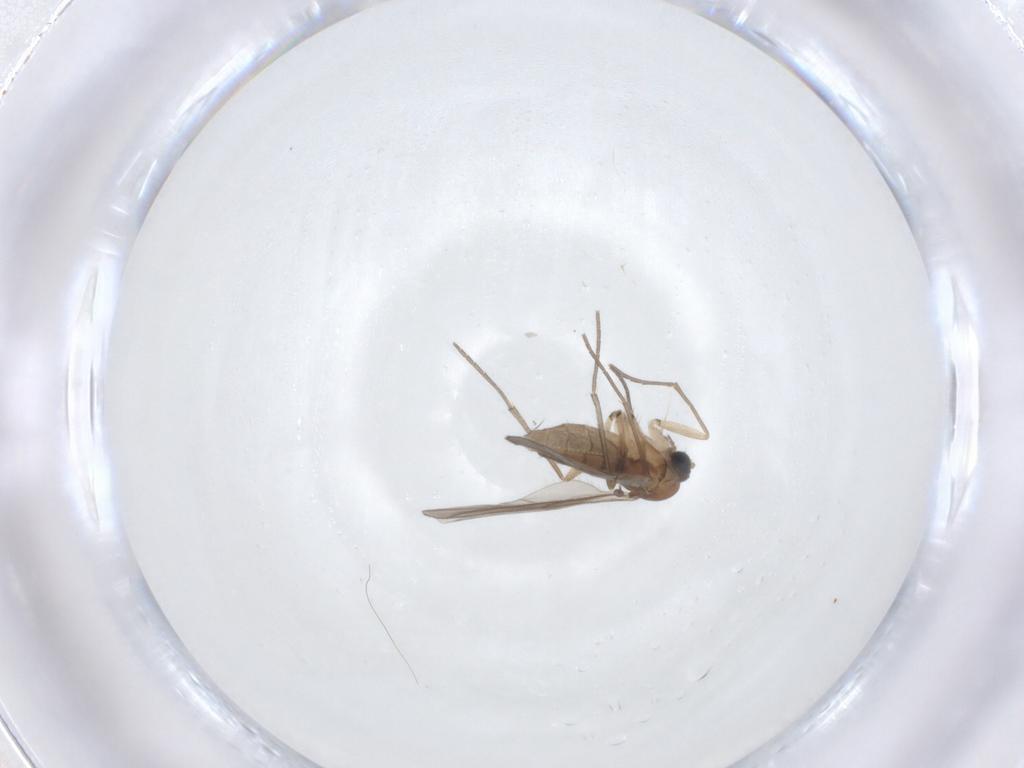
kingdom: Animalia
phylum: Arthropoda
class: Insecta
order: Diptera
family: Sciaridae
